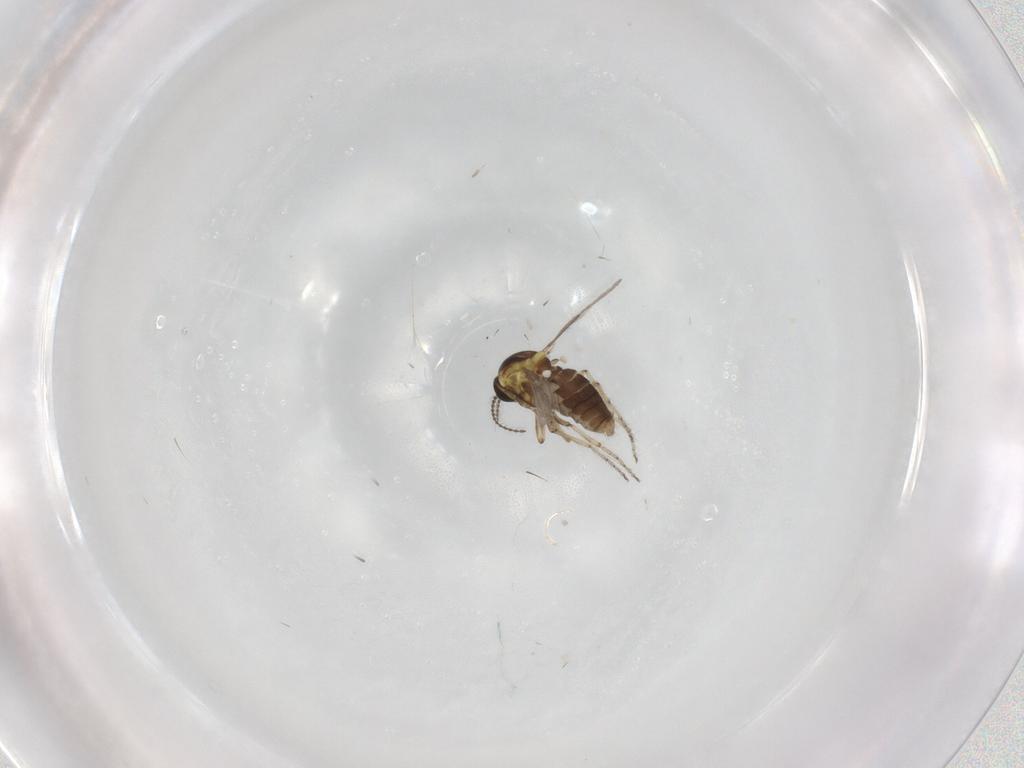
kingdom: Animalia
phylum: Arthropoda
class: Insecta
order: Diptera
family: Ceratopogonidae
